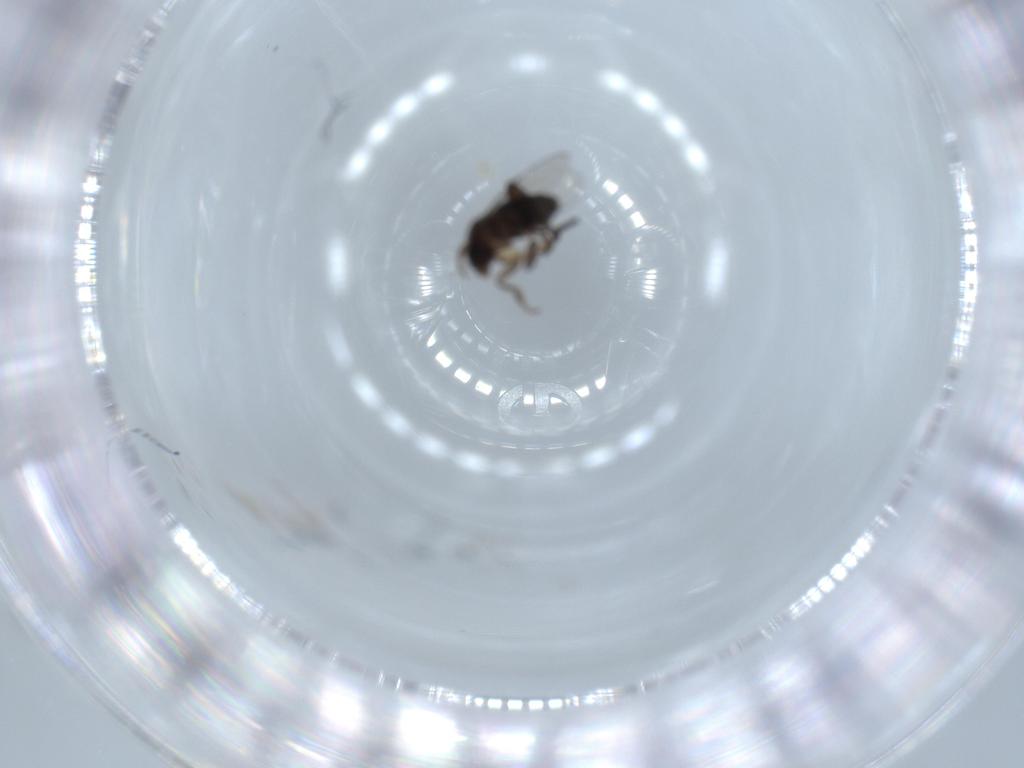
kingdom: Animalia
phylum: Arthropoda
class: Insecta
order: Diptera
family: Phoridae
